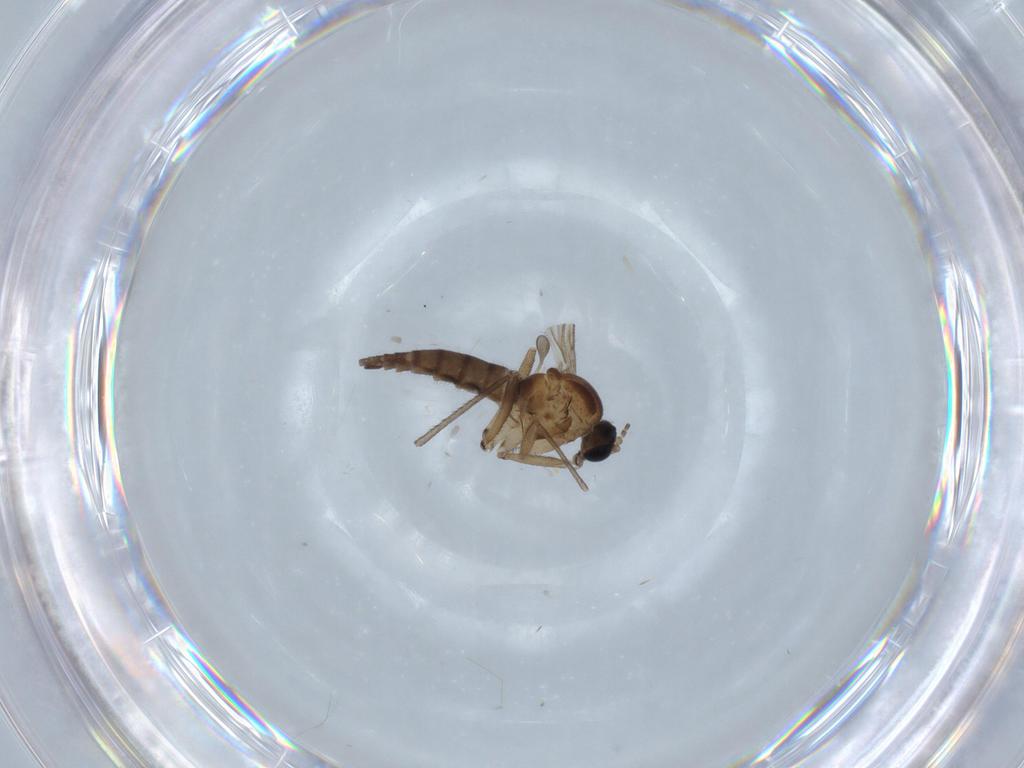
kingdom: Animalia
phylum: Arthropoda
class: Insecta
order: Diptera
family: Sciaridae
